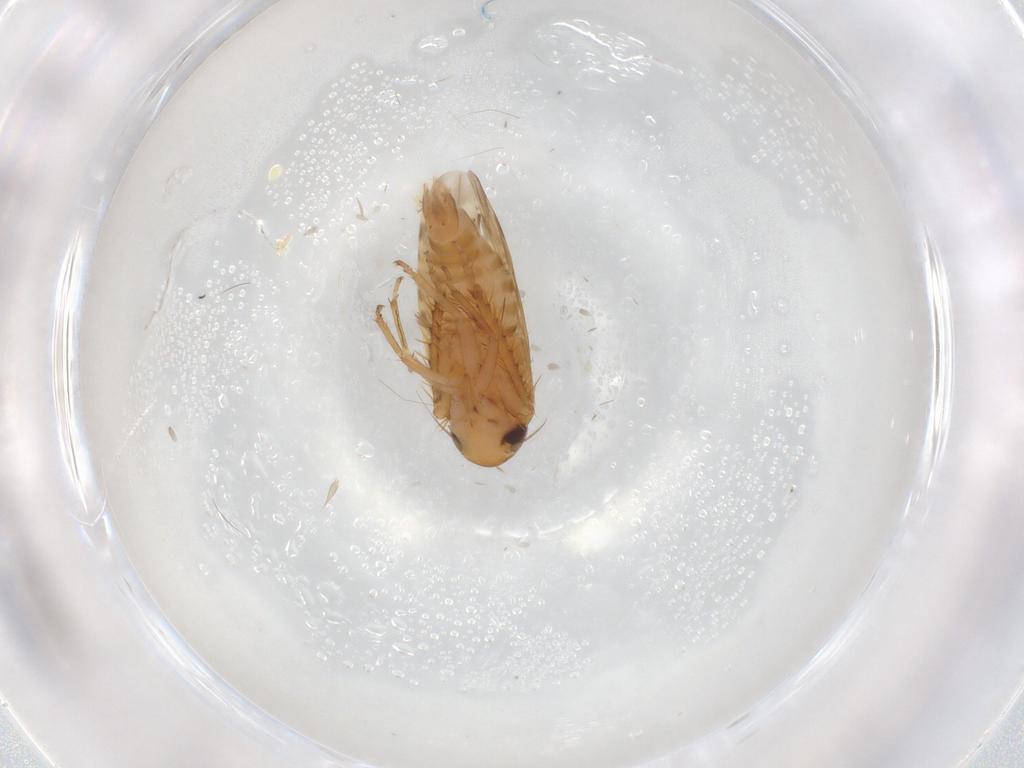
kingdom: Animalia
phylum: Arthropoda
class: Insecta
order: Hemiptera
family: Cicadellidae
